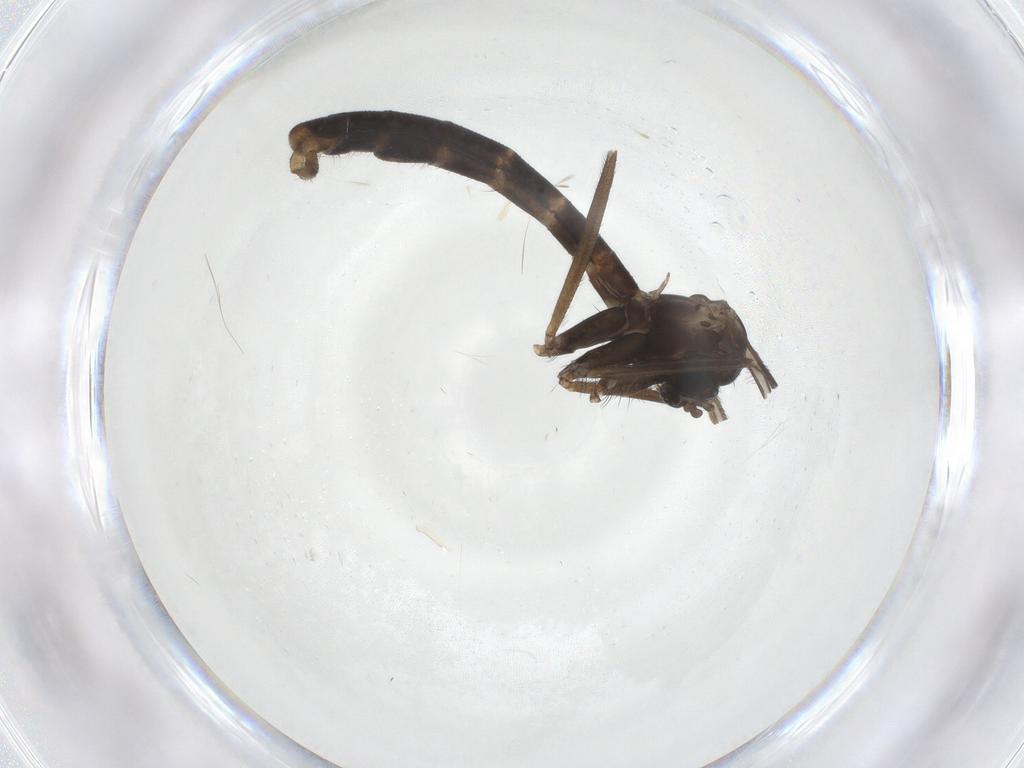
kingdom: Animalia
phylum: Arthropoda
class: Insecta
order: Diptera
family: Tachinidae
